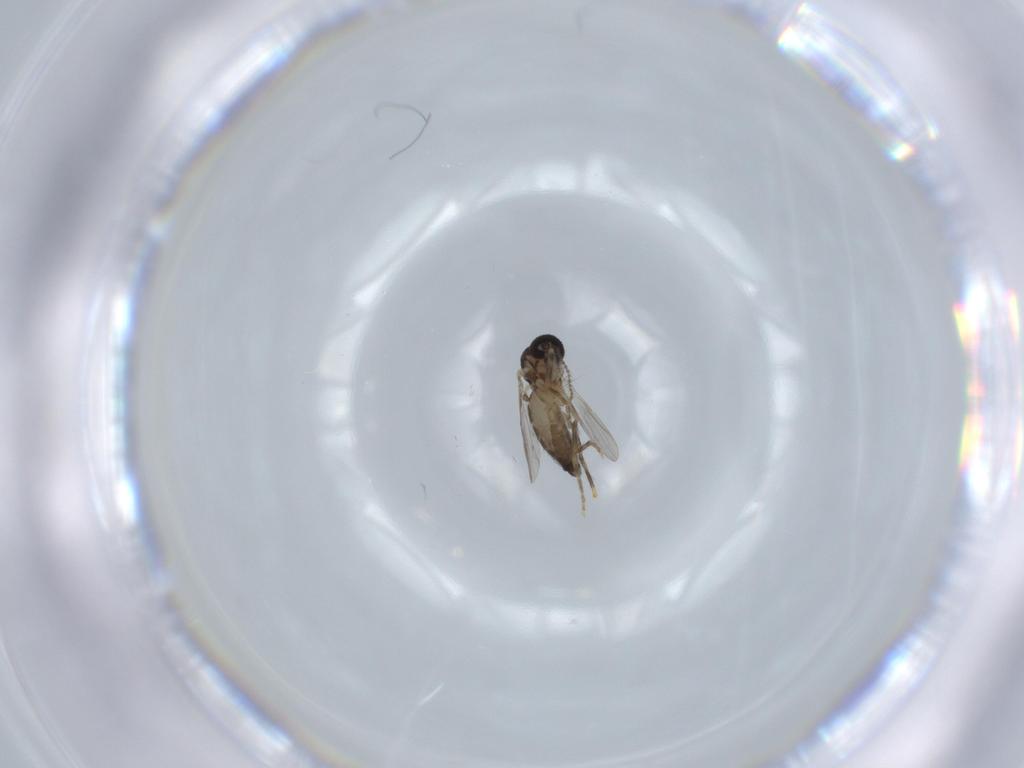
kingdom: Animalia
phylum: Arthropoda
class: Insecta
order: Diptera
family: Ceratopogonidae
